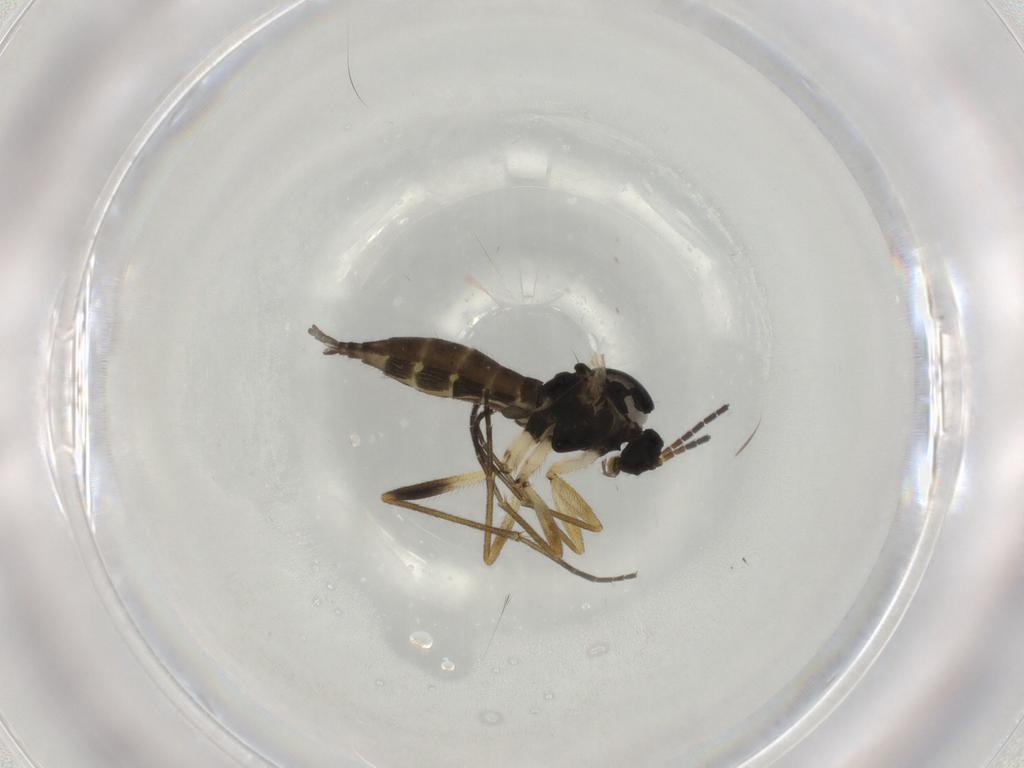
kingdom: Animalia
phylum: Arthropoda
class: Insecta
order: Diptera
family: Sciaridae
